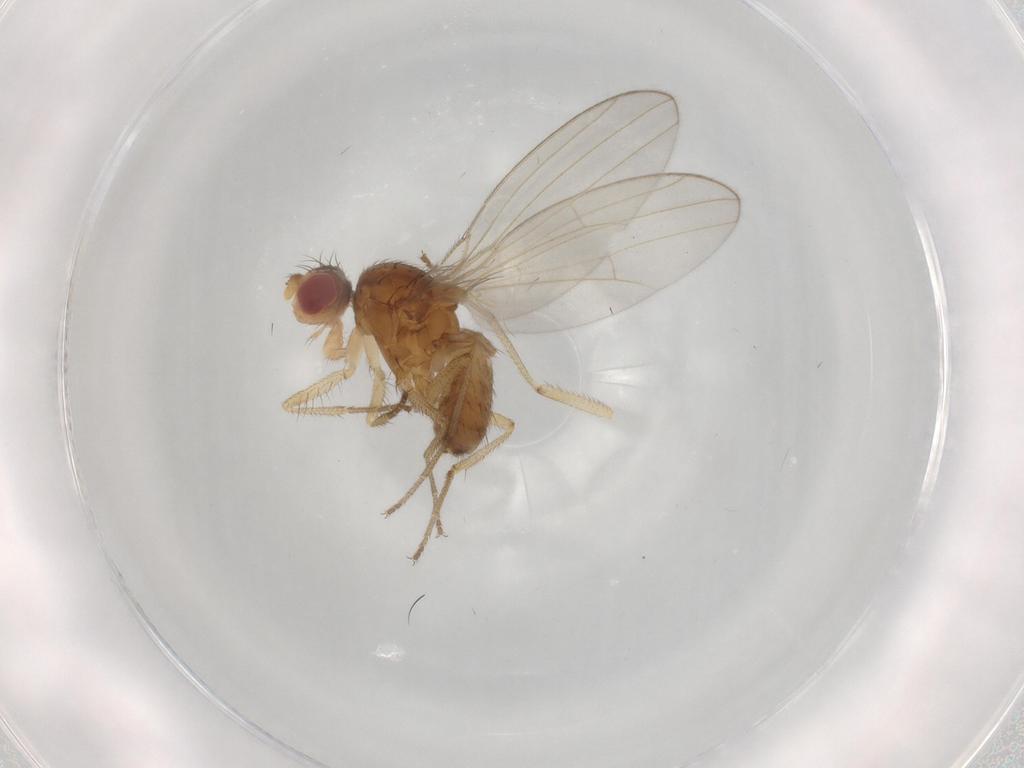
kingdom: Animalia
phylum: Arthropoda
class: Insecta
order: Diptera
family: Drosophilidae
